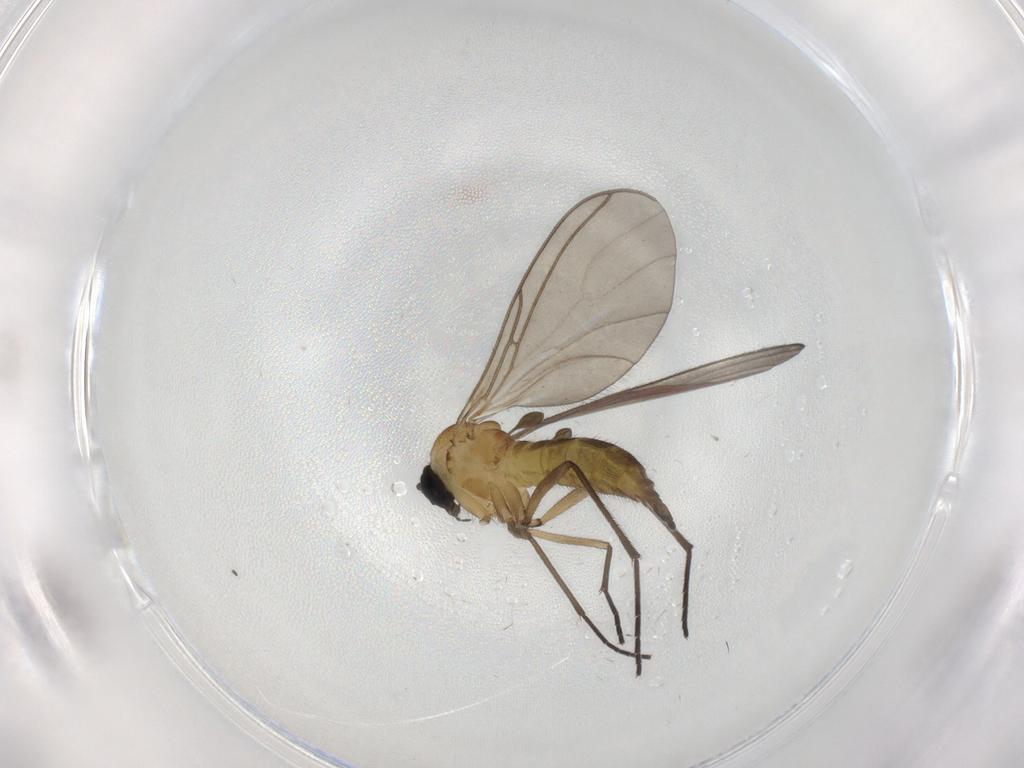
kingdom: Animalia
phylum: Arthropoda
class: Insecta
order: Diptera
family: Sciaridae
